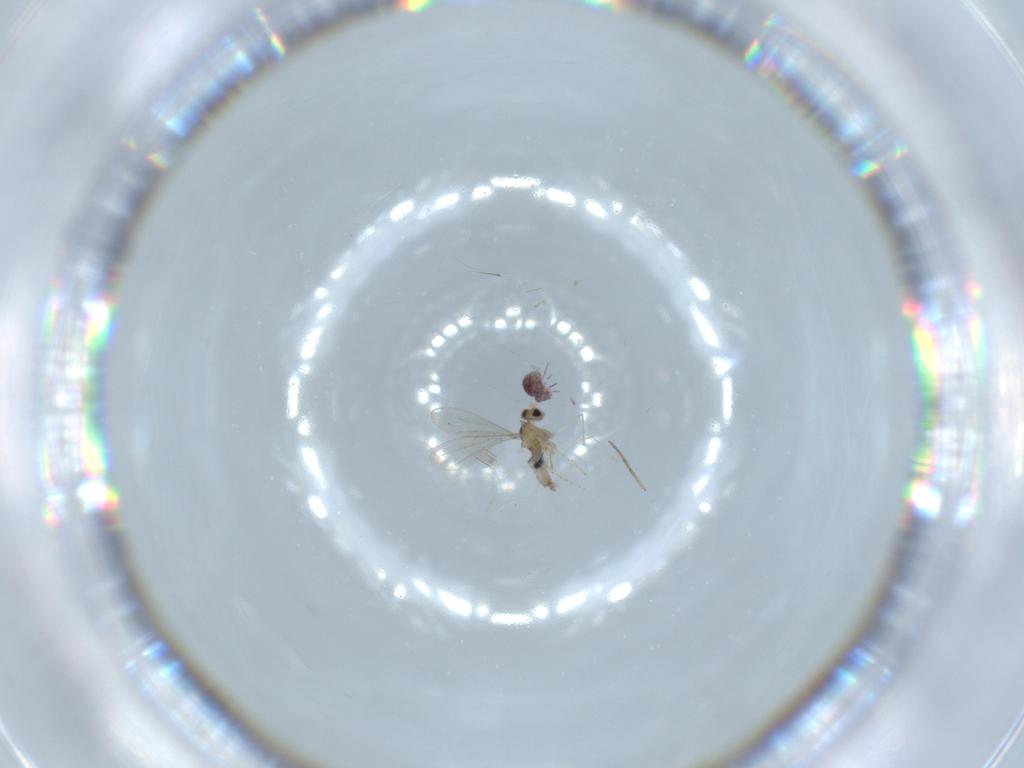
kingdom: Animalia
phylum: Arthropoda
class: Insecta
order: Diptera
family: Cecidomyiidae
